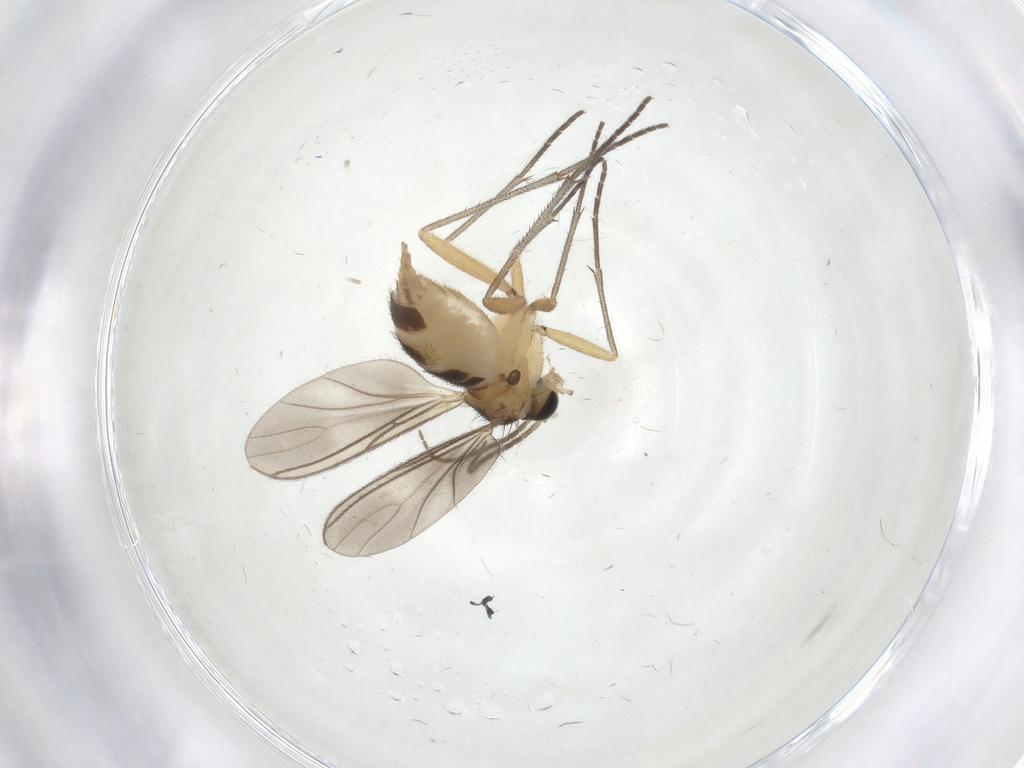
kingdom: Animalia
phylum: Arthropoda
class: Insecta
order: Diptera
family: Sciaridae
